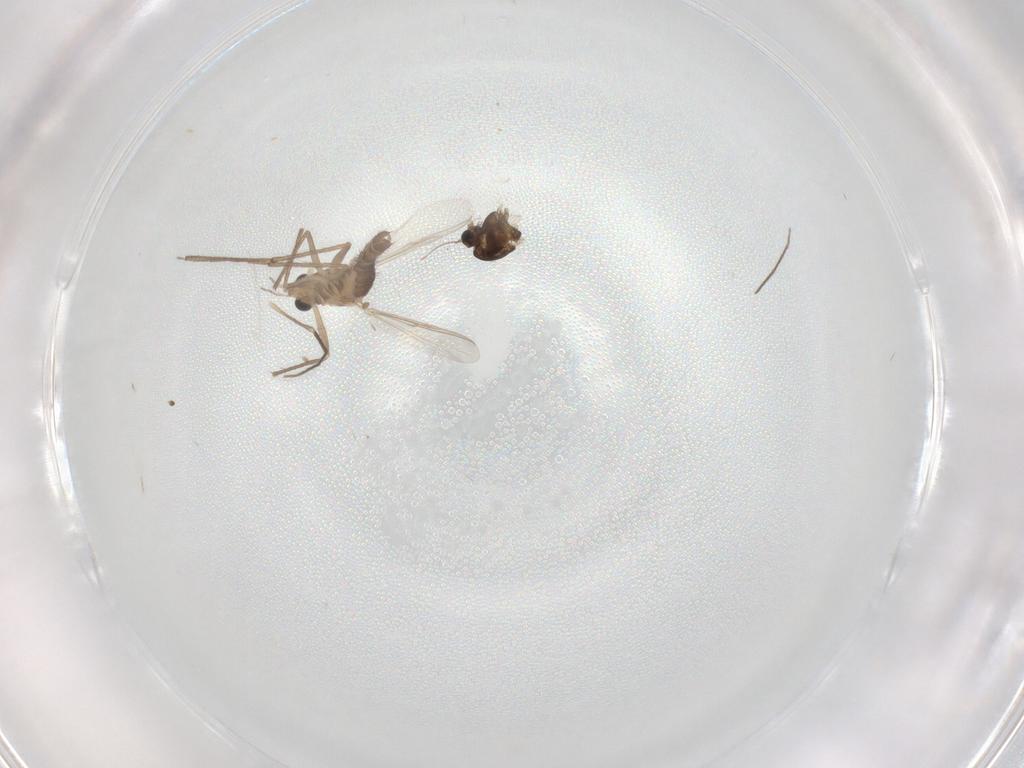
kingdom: Animalia
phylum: Arthropoda
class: Insecta
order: Diptera
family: Chironomidae
